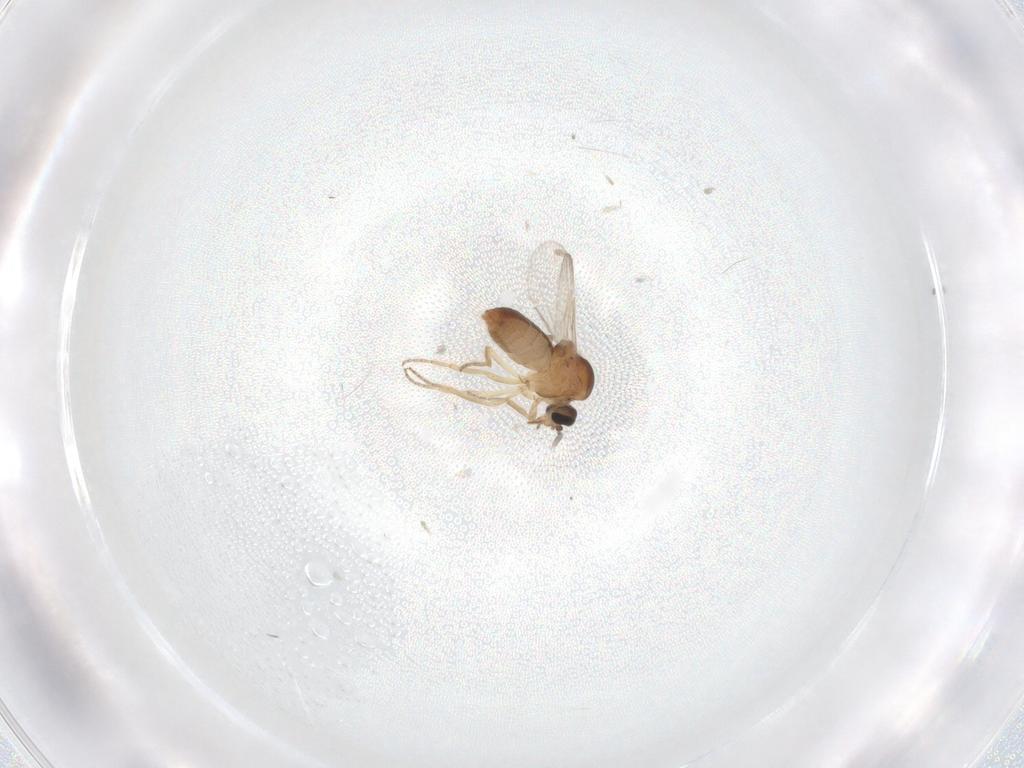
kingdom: Animalia
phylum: Arthropoda
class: Insecta
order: Diptera
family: Ceratopogonidae
